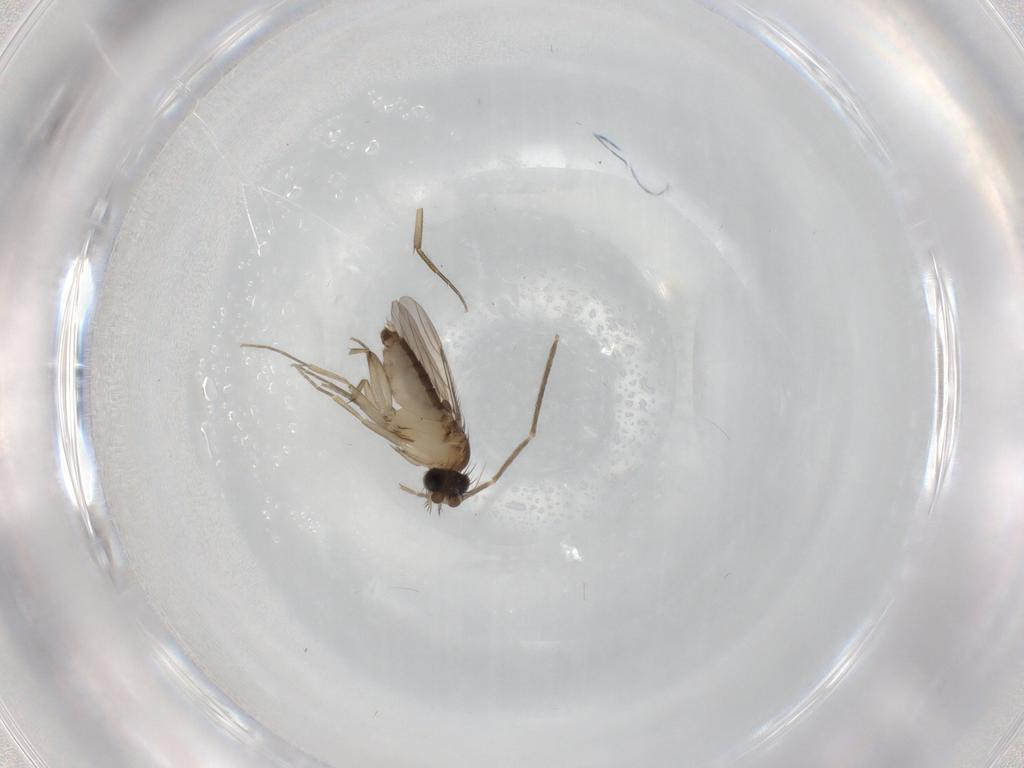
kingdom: Animalia
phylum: Arthropoda
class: Insecta
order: Diptera
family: Phoridae
